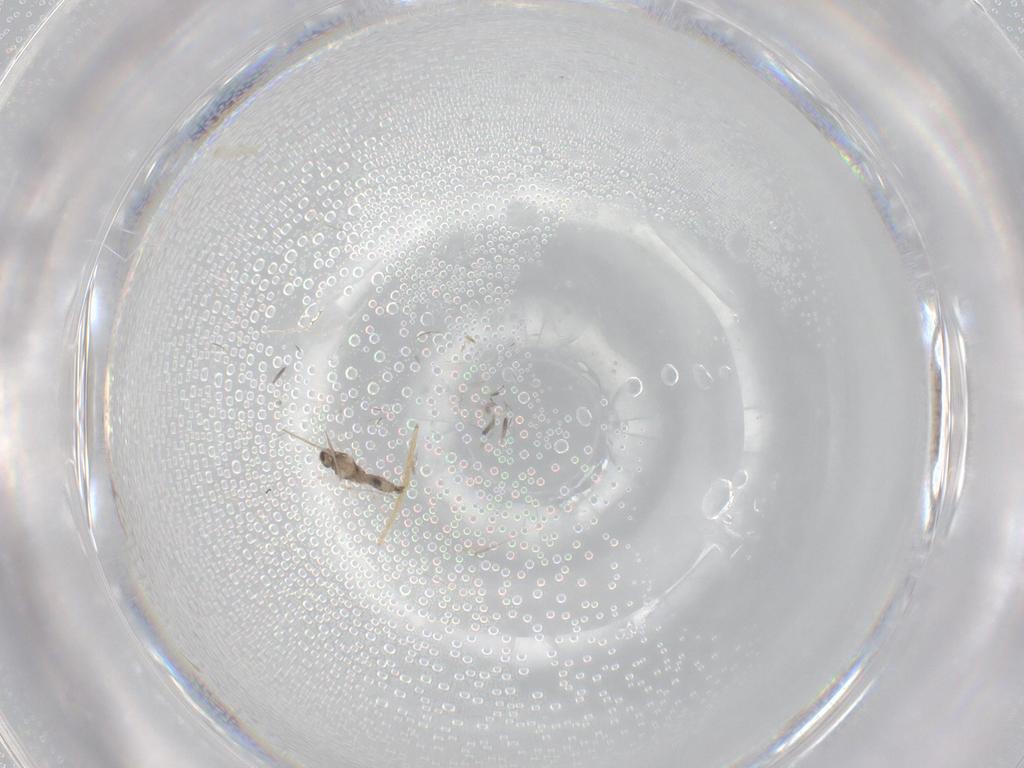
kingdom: Animalia
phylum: Arthropoda
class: Insecta
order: Diptera
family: Cecidomyiidae
